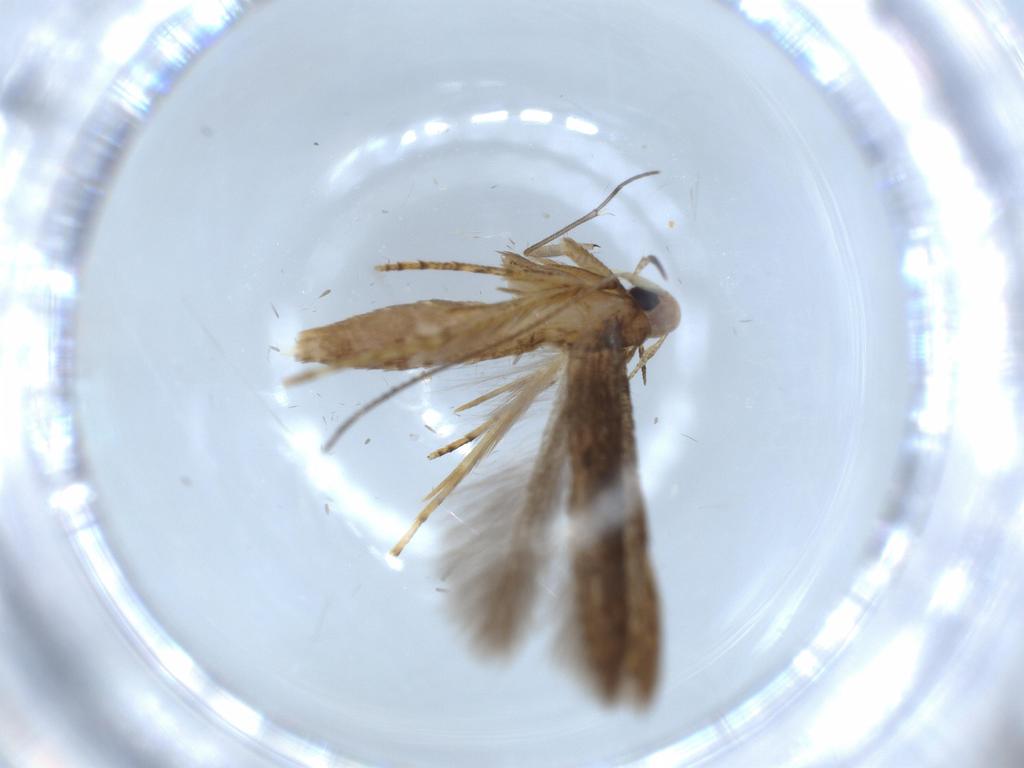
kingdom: Animalia
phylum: Arthropoda
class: Insecta
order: Lepidoptera
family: Heliodinidae
